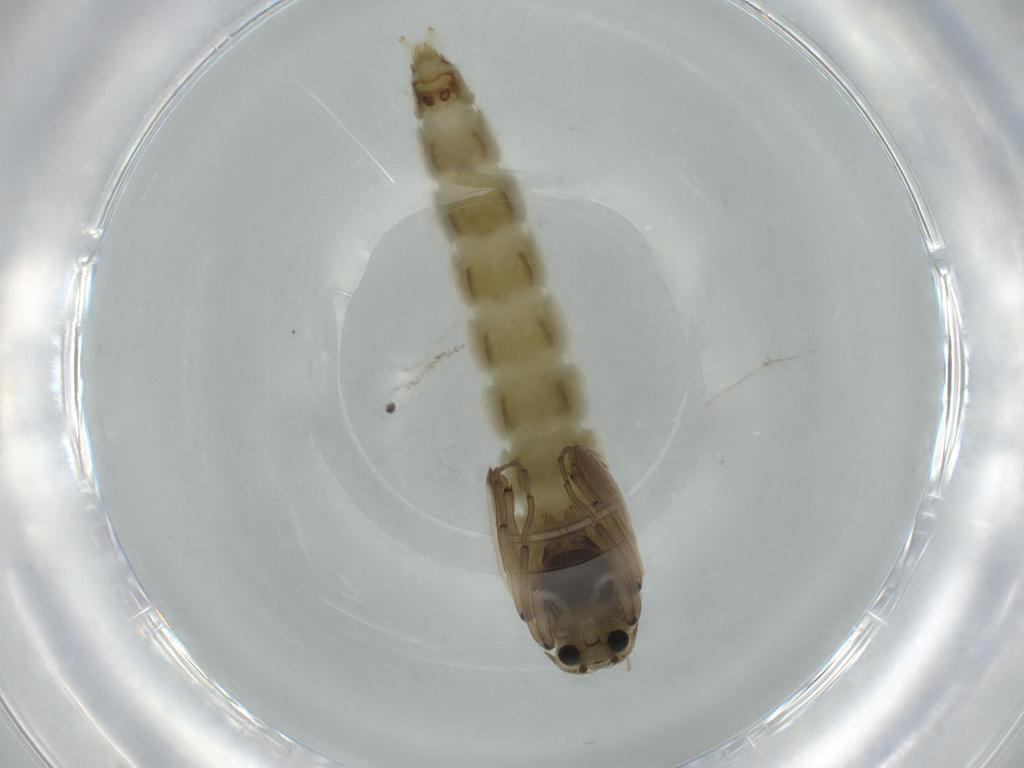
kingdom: Animalia
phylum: Arthropoda
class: Insecta
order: Diptera
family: Chironomidae
